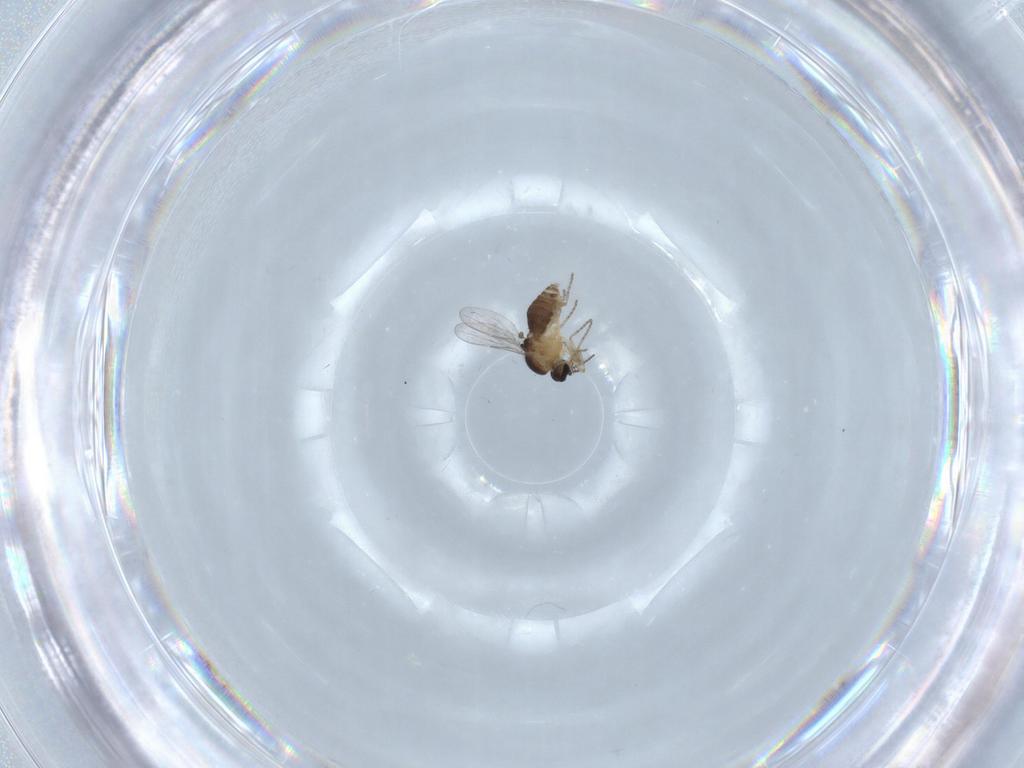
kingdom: Animalia
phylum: Arthropoda
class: Insecta
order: Diptera
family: Ceratopogonidae
